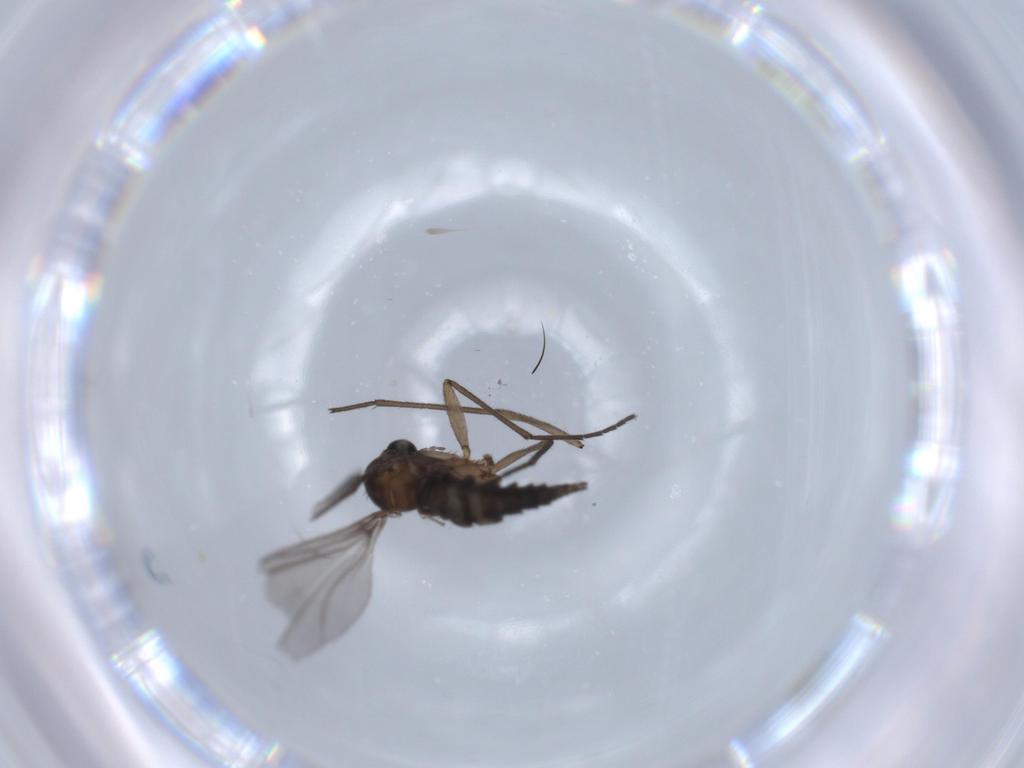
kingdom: Animalia
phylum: Arthropoda
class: Insecta
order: Diptera
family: Sciaridae
